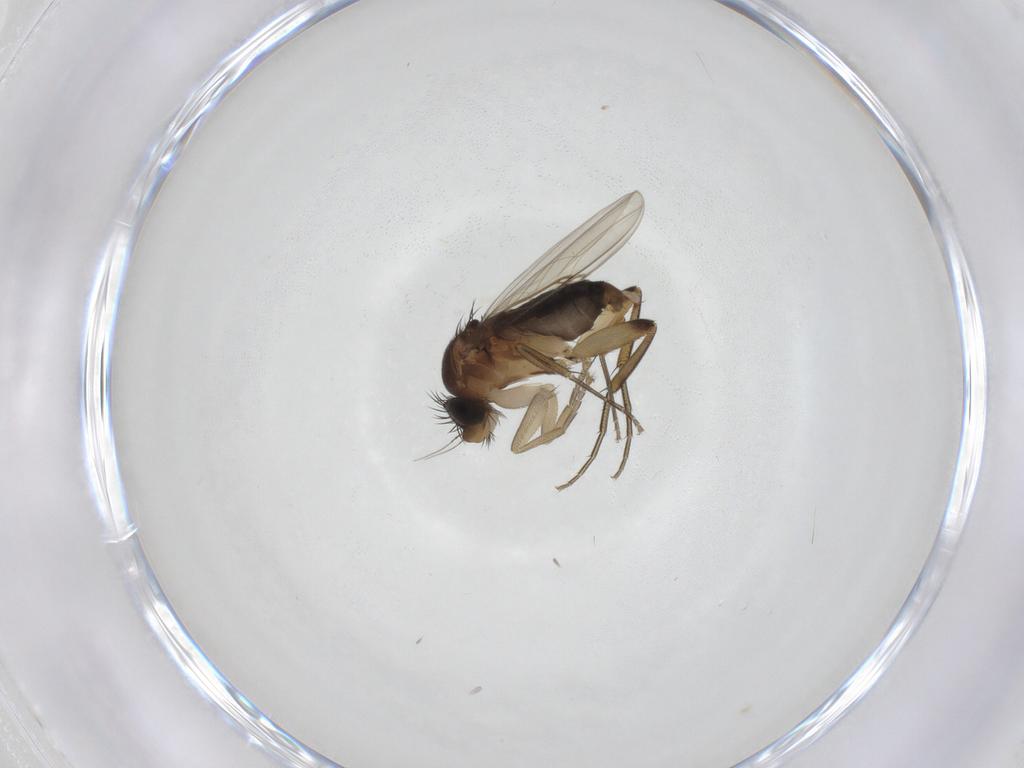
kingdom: Animalia
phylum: Arthropoda
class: Insecta
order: Diptera
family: Phoridae
